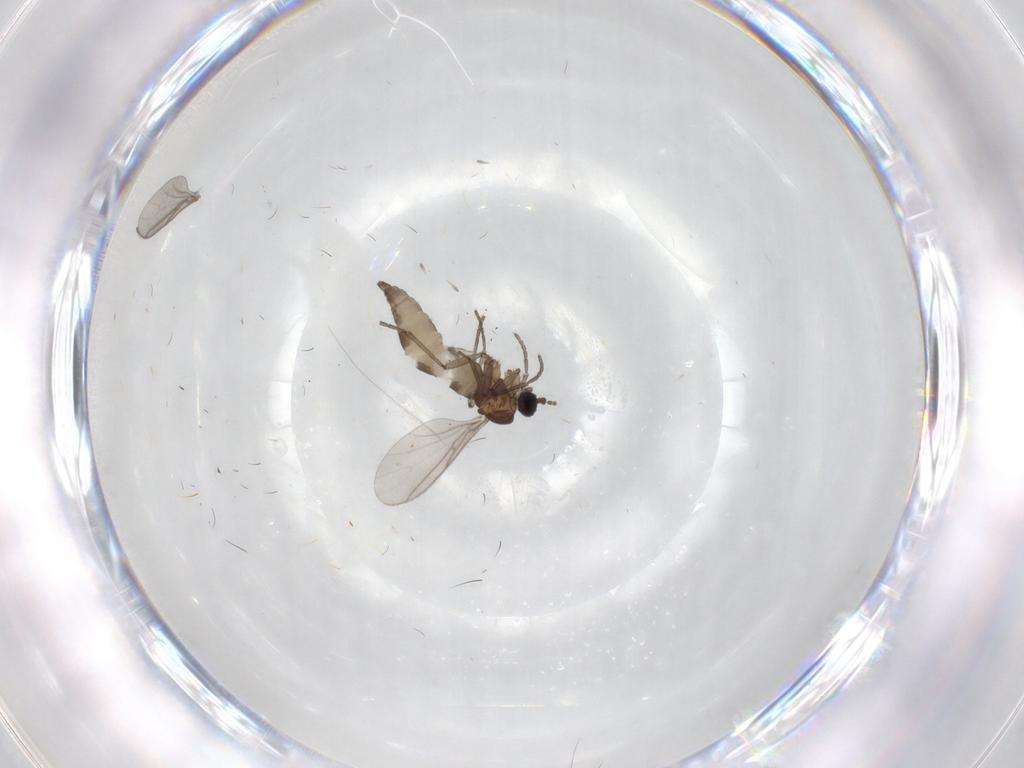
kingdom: Animalia
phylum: Arthropoda
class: Insecta
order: Diptera
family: Sciaridae
